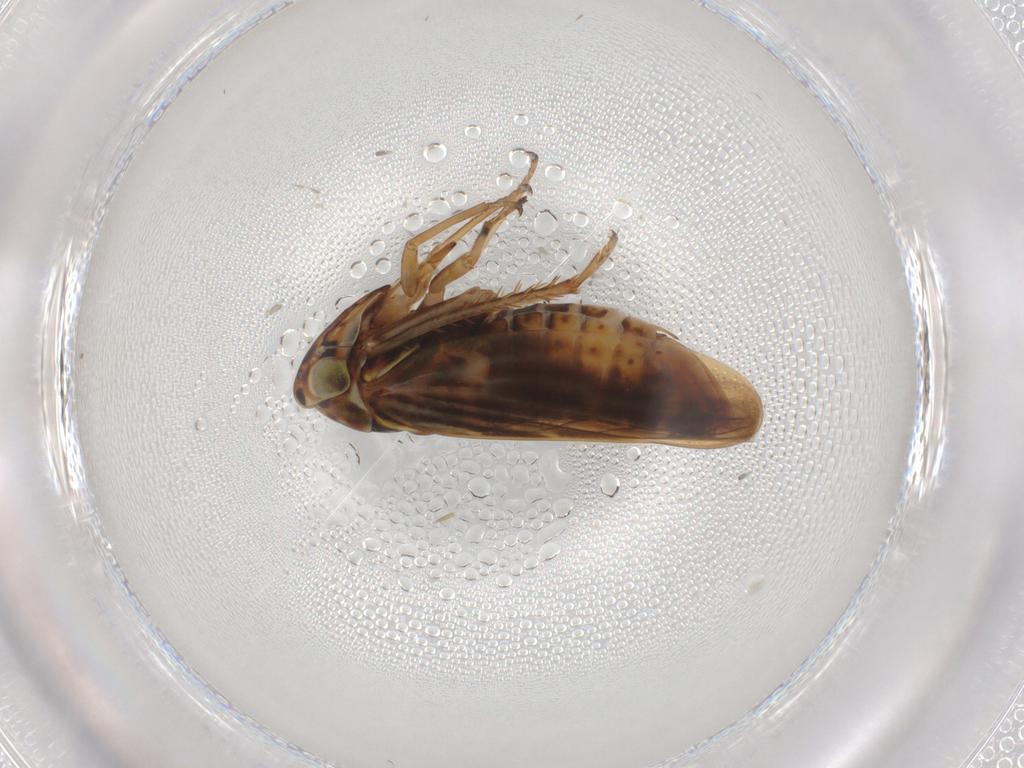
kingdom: Animalia
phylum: Arthropoda
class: Insecta
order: Hemiptera
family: Cicadellidae
